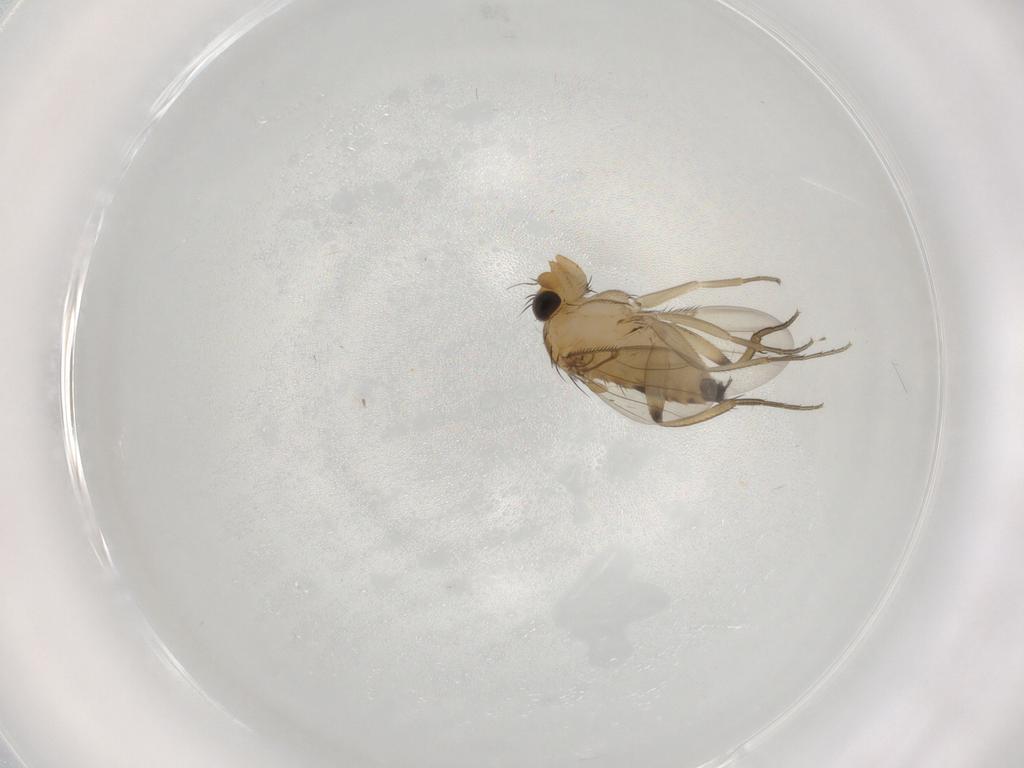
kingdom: Animalia
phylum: Arthropoda
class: Insecta
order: Diptera
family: Phoridae
